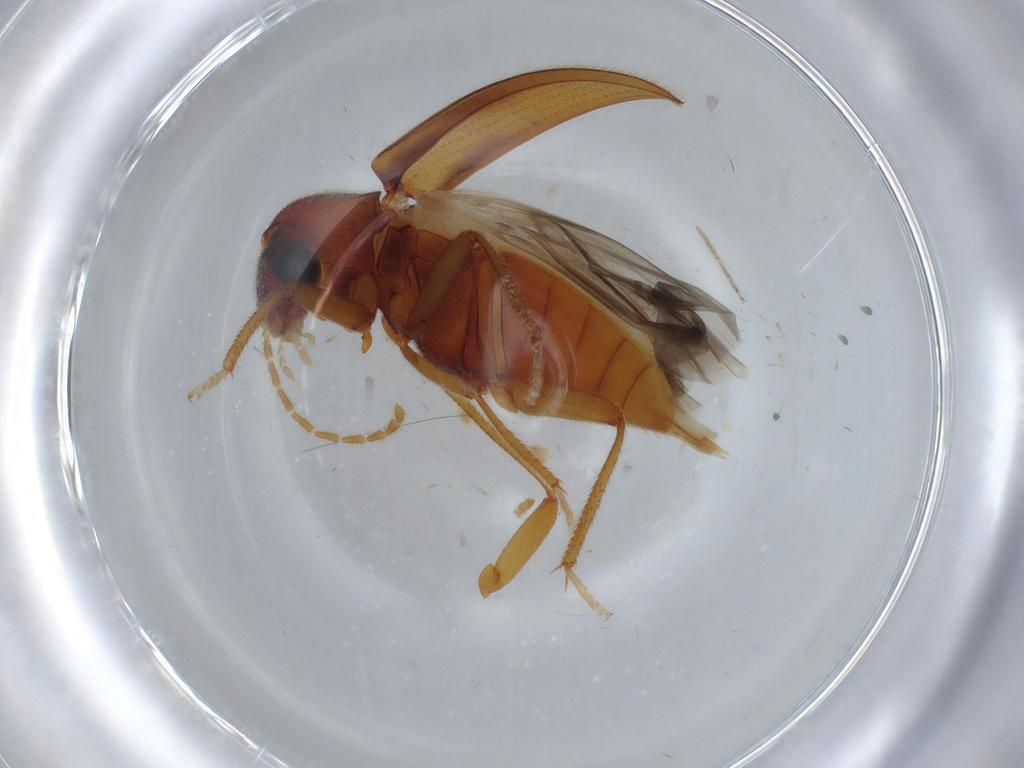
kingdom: Animalia
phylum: Arthropoda
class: Insecta
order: Coleoptera
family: Ptilodactylidae
